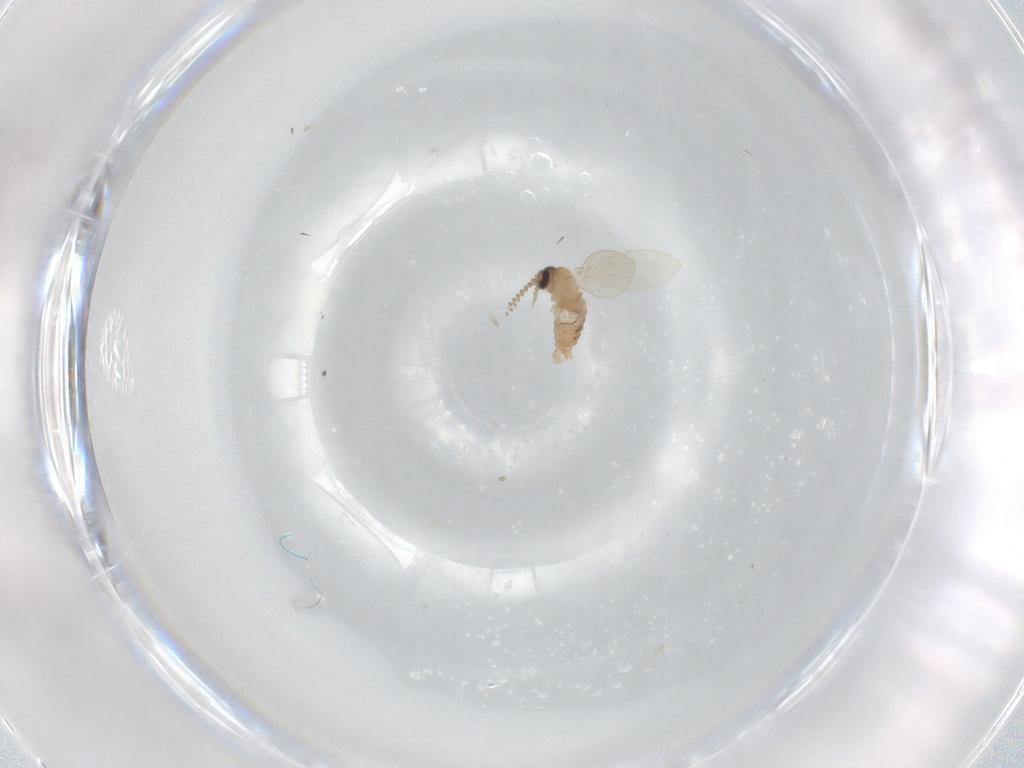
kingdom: Animalia
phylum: Arthropoda
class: Insecta
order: Diptera
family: Psychodidae
